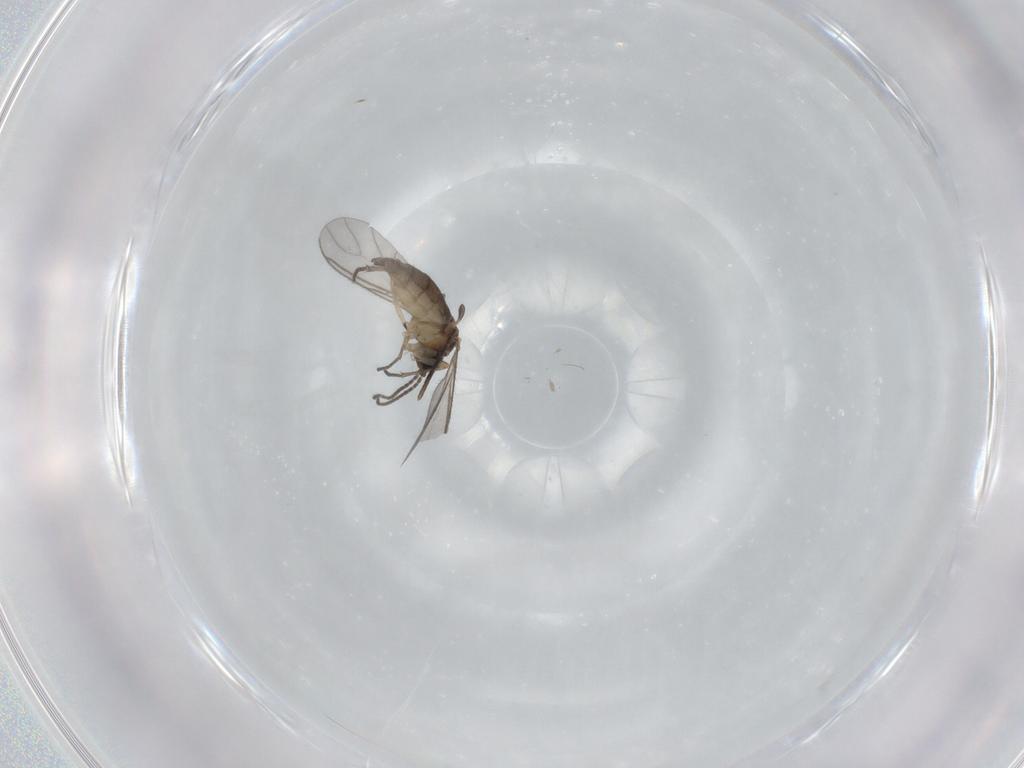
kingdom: Animalia
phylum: Arthropoda
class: Insecta
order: Diptera
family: Sciaridae
